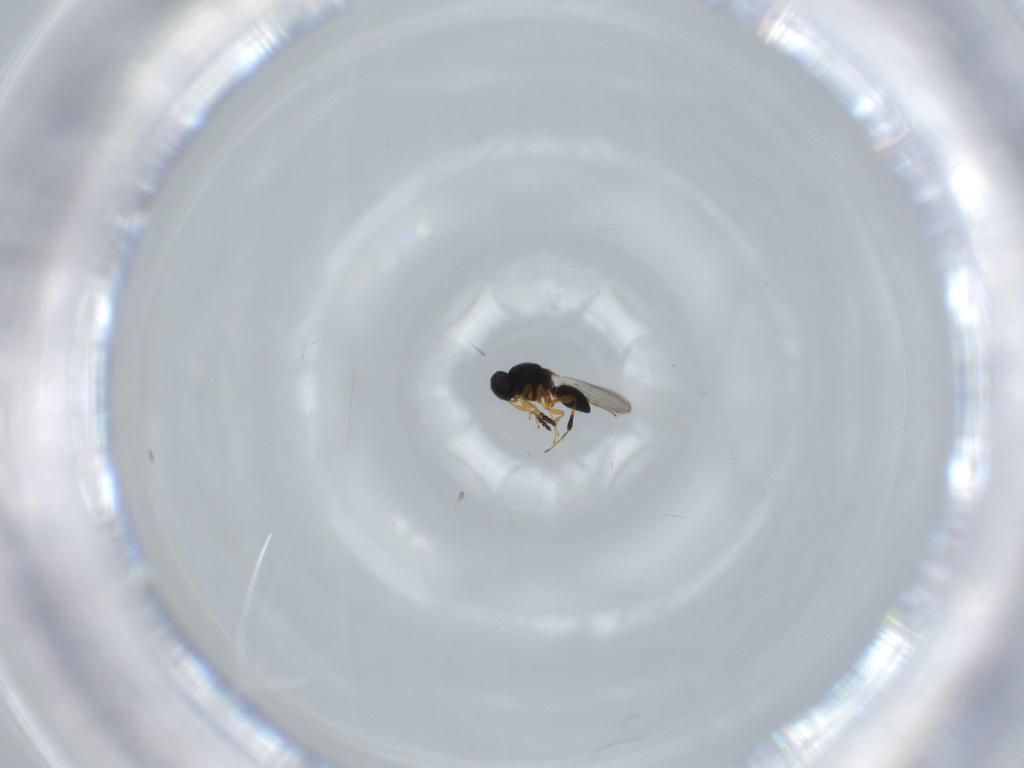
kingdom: Animalia
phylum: Arthropoda
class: Insecta
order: Hymenoptera
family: Platygastridae
